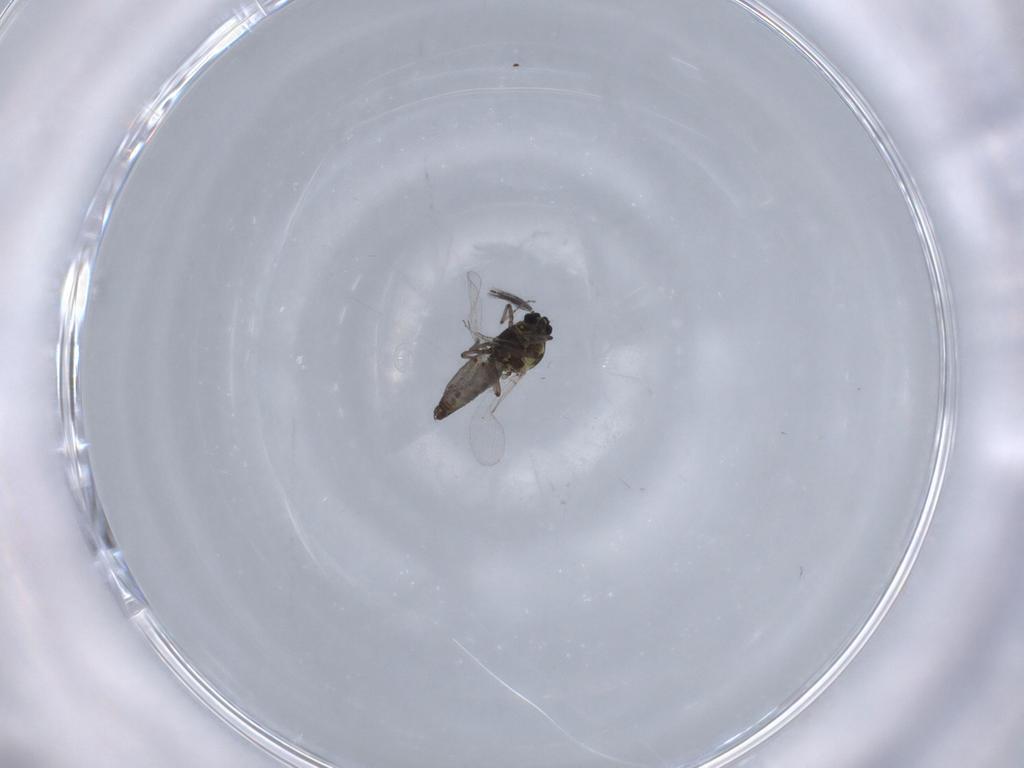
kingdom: Animalia
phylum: Arthropoda
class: Insecta
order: Diptera
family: Ceratopogonidae
